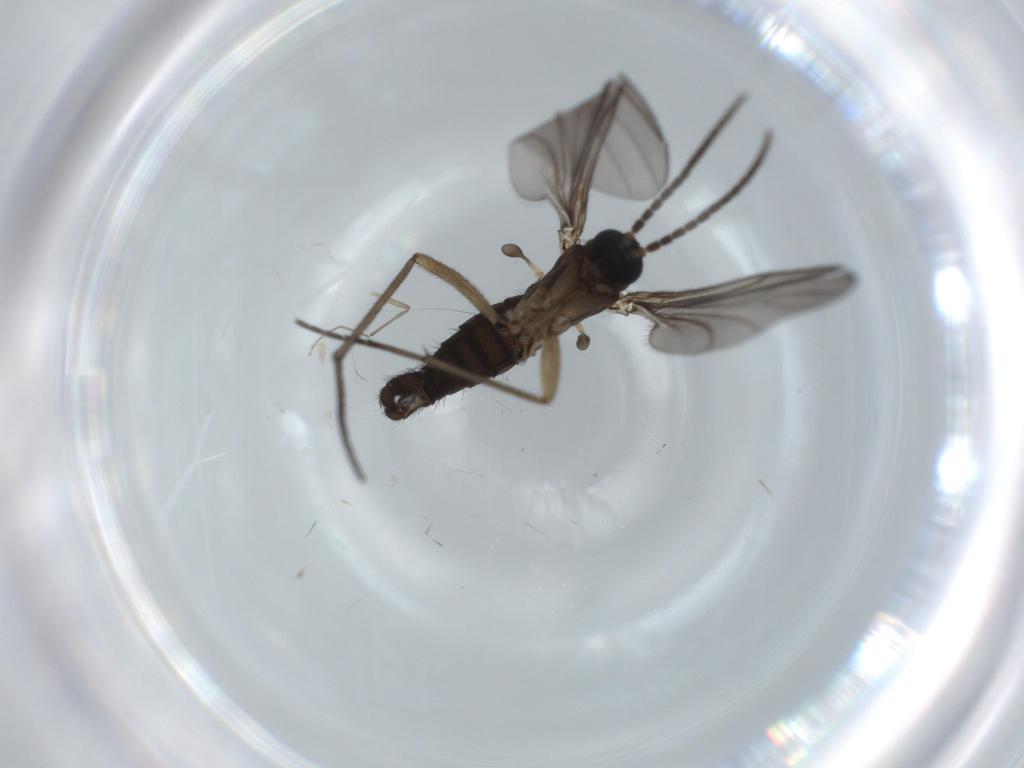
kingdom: Animalia
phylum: Arthropoda
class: Insecta
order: Diptera
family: Sciaridae
